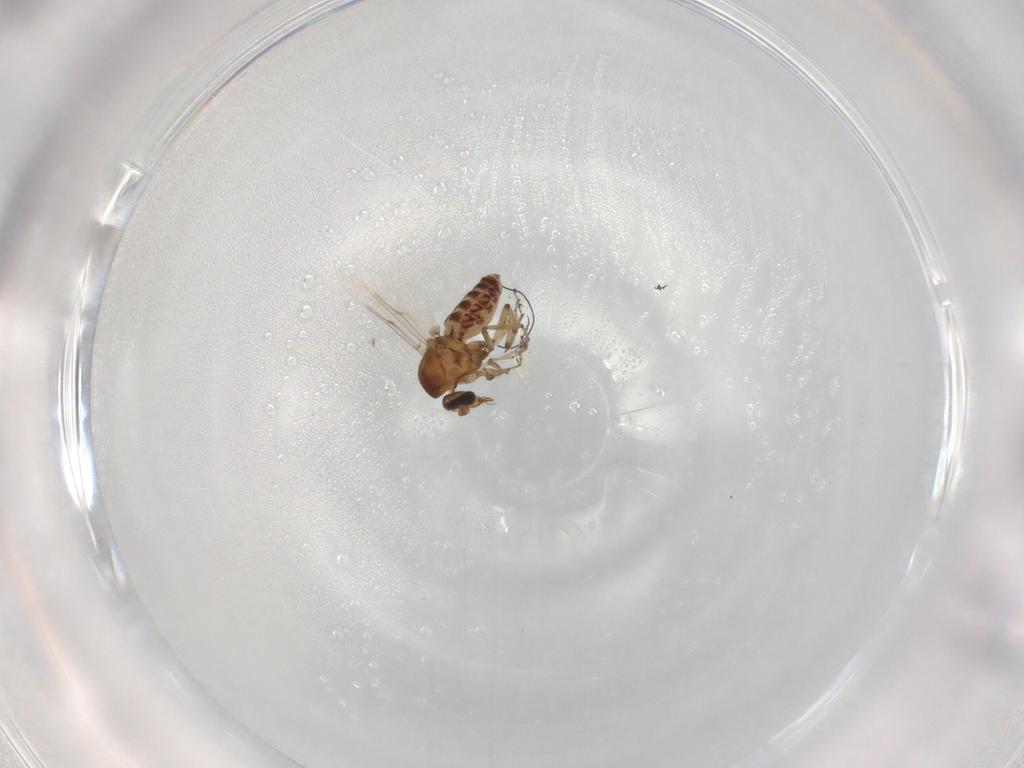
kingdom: Animalia
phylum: Arthropoda
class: Insecta
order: Diptera
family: Ceratopogonidae
